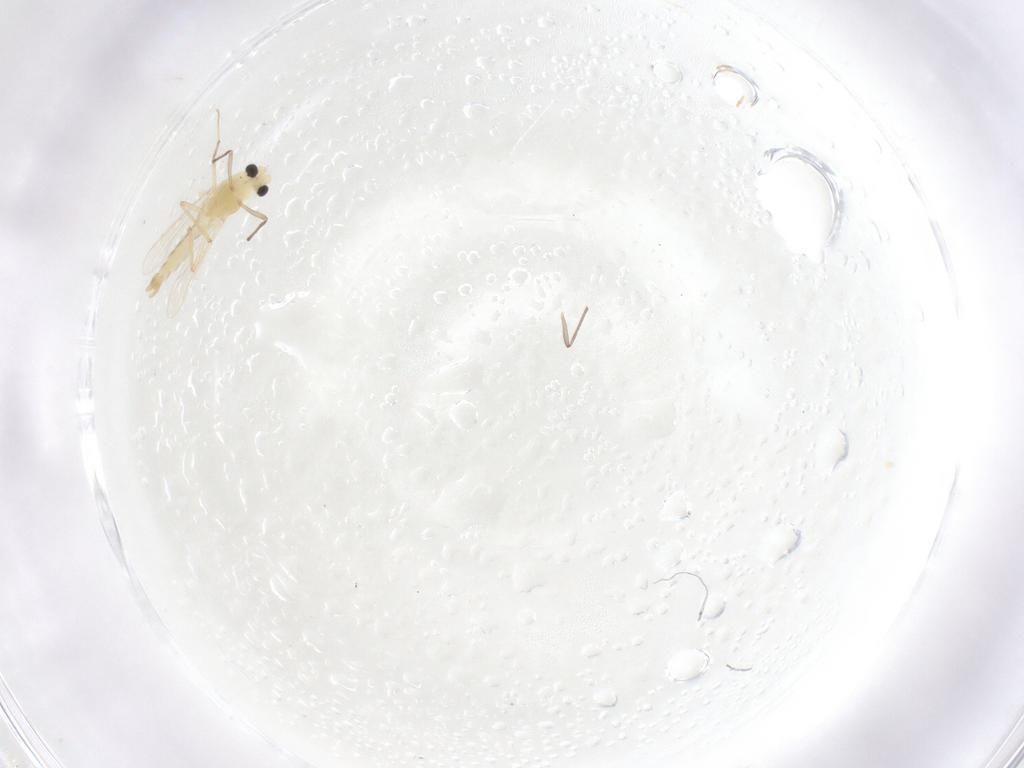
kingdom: Animalia
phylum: Arthropoda
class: Insecta
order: Diptera
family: Chironomidae
